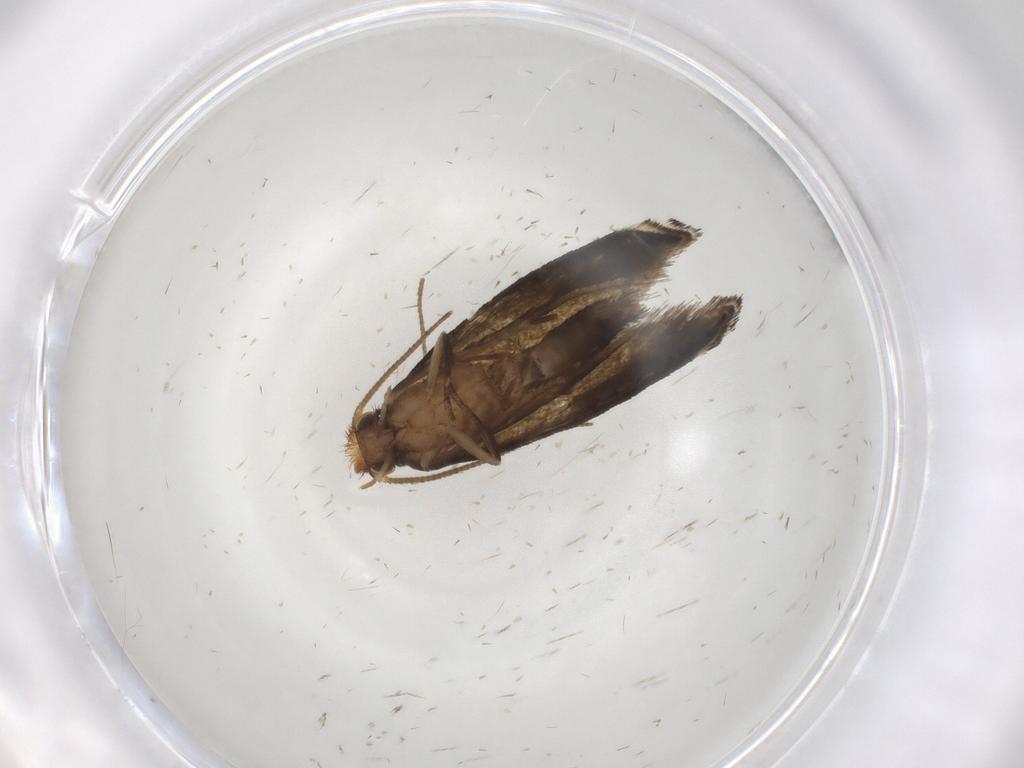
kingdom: Animalia
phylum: Arthropoda
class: Insecta
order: Lepidoptera
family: Tineidae
